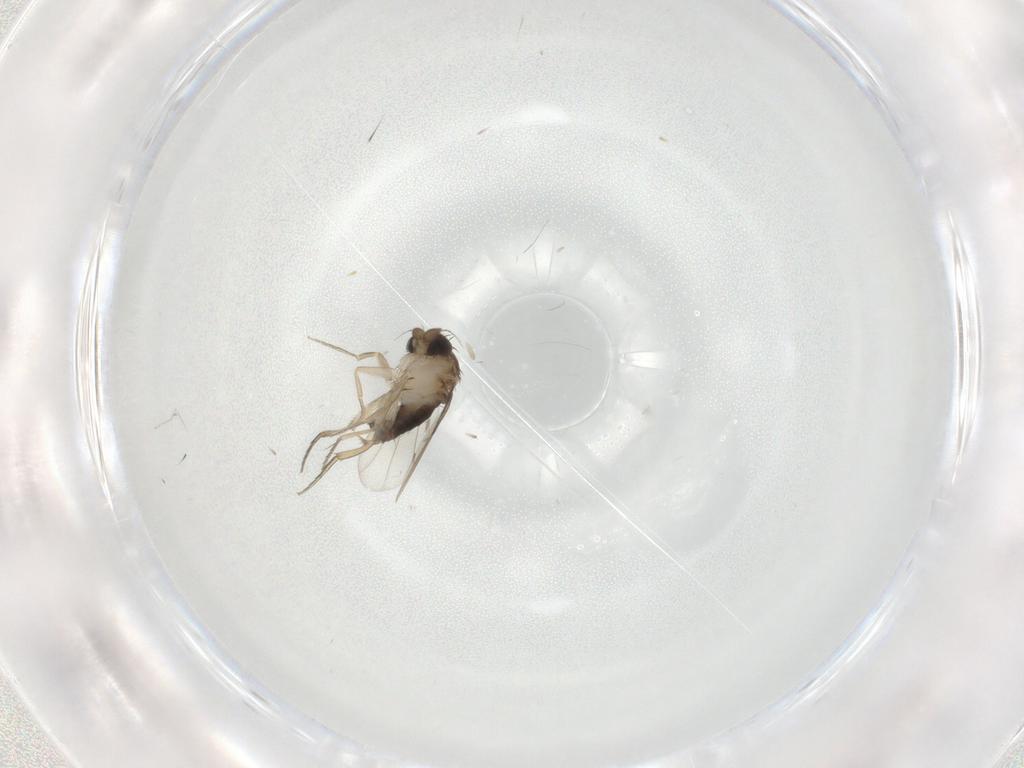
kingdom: Animalia
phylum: Arthropoda
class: Insecta
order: Diptera
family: Phoridae
